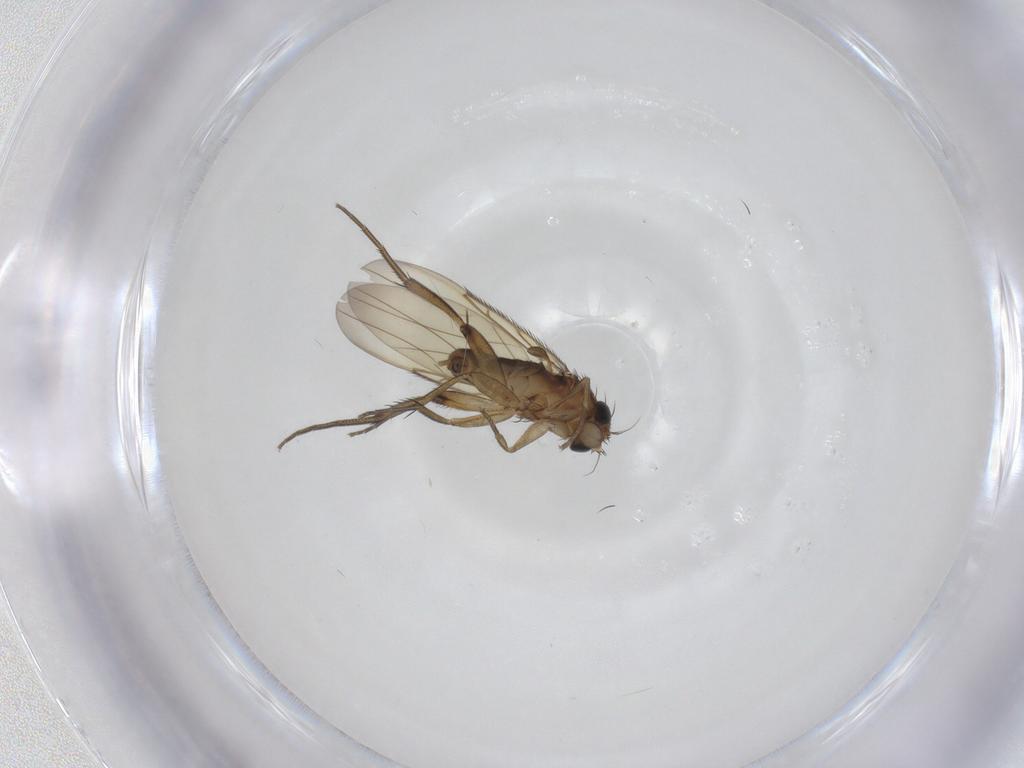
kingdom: Animalia
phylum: Arthropoda
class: Insecta
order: Diptera
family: Phoridae
